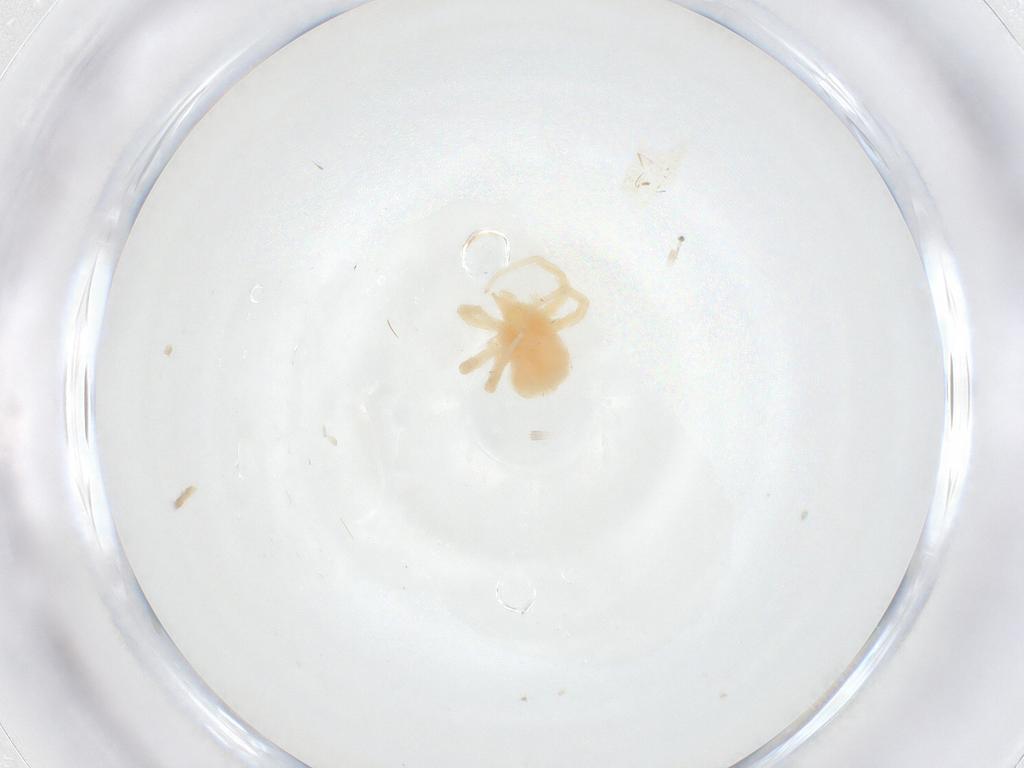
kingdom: Animalia
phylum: Arthropoda
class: Arachnida
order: Trombidiformes
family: Anystidae
